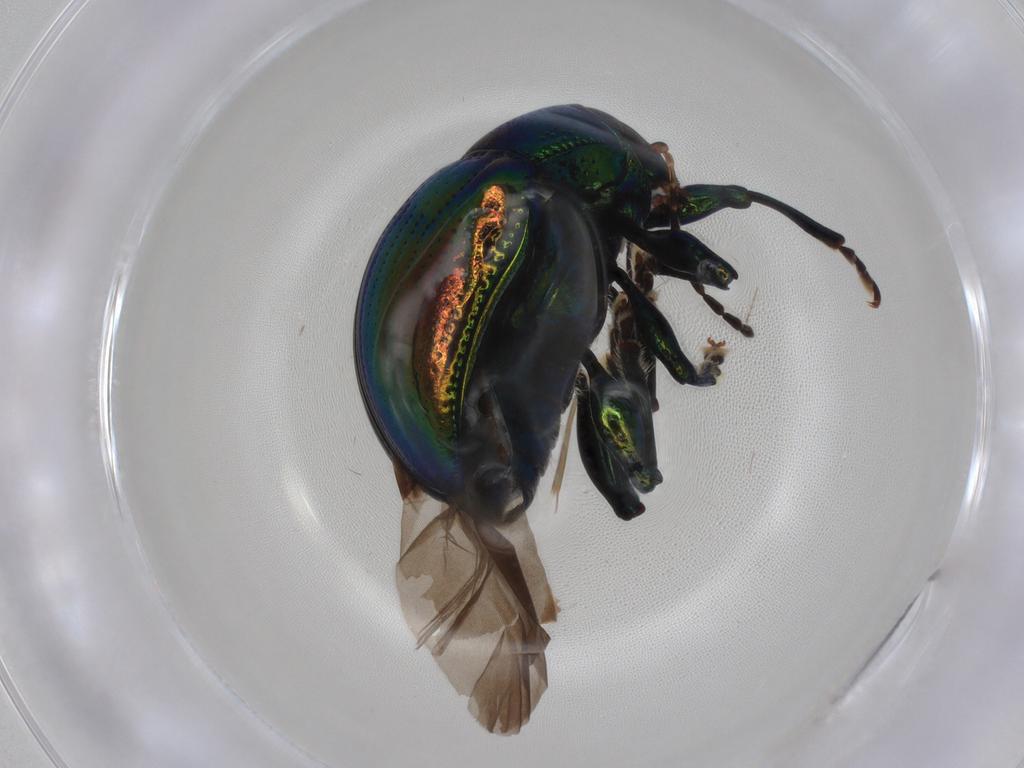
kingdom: Animalia
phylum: Arthropoda
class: Insecta
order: Coleoptera
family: Chrysomelidae
